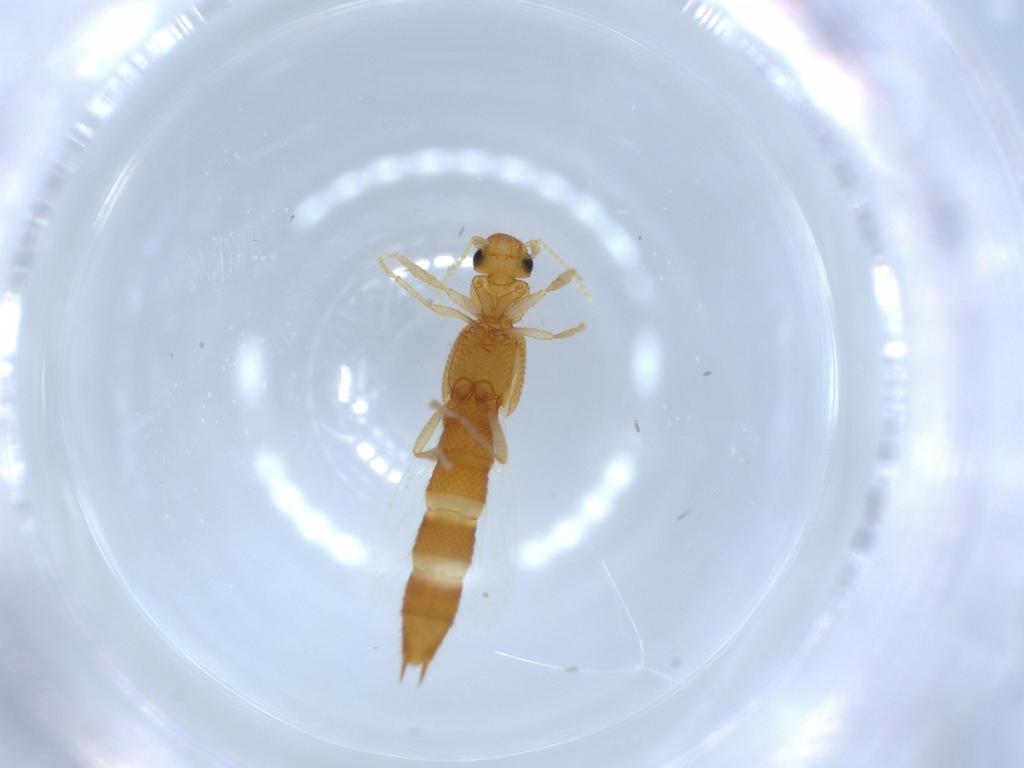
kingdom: Animalia
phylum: Arthropoda
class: Insecta
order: Coleoptera
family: Staphylinidae
